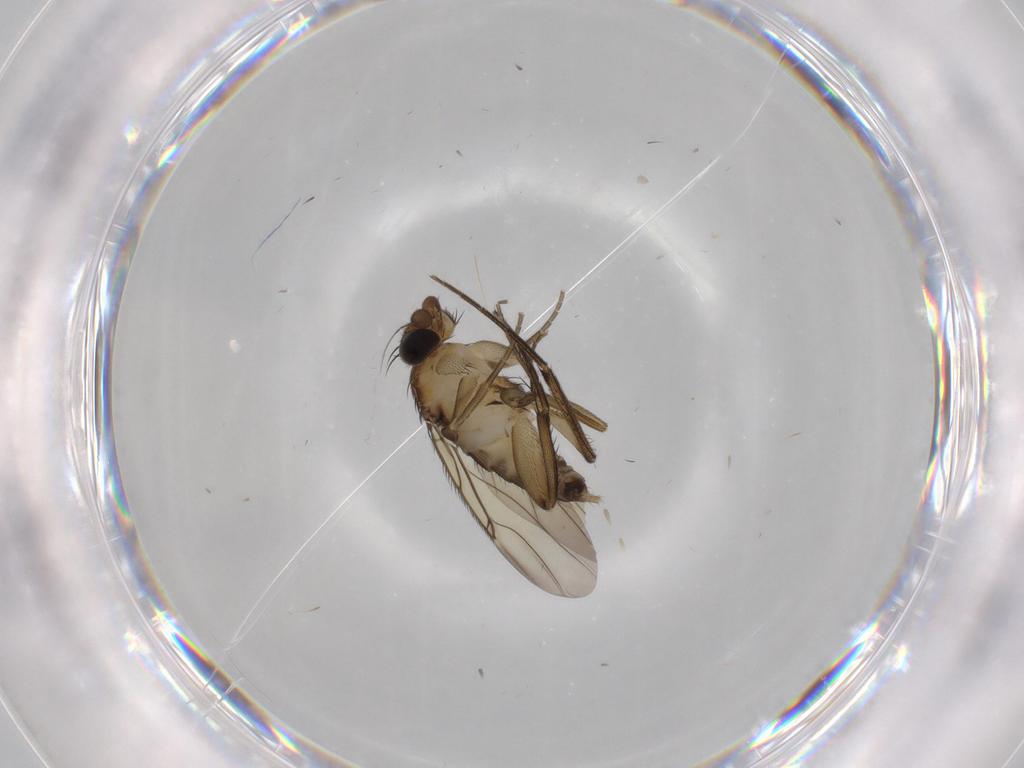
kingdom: Animalia
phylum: Arthropoda
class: Insecta
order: Diptera
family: Phoridae
